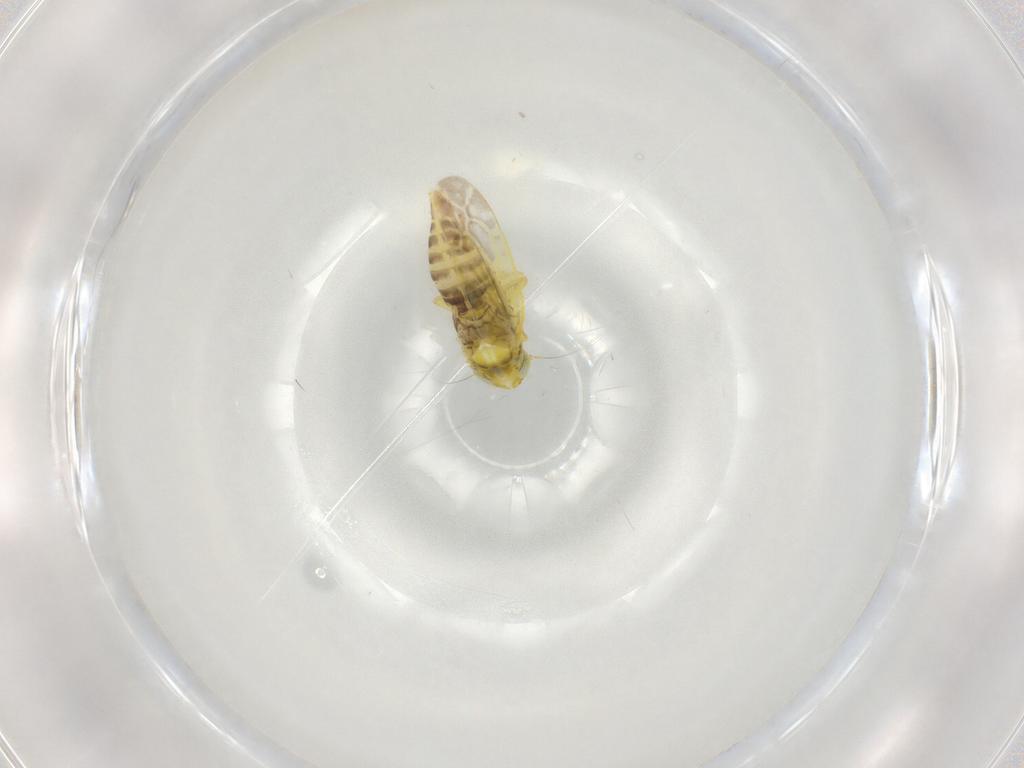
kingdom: Animalia
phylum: Arthropoda
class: Insecta
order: Hemiptera
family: Cicadellidae
